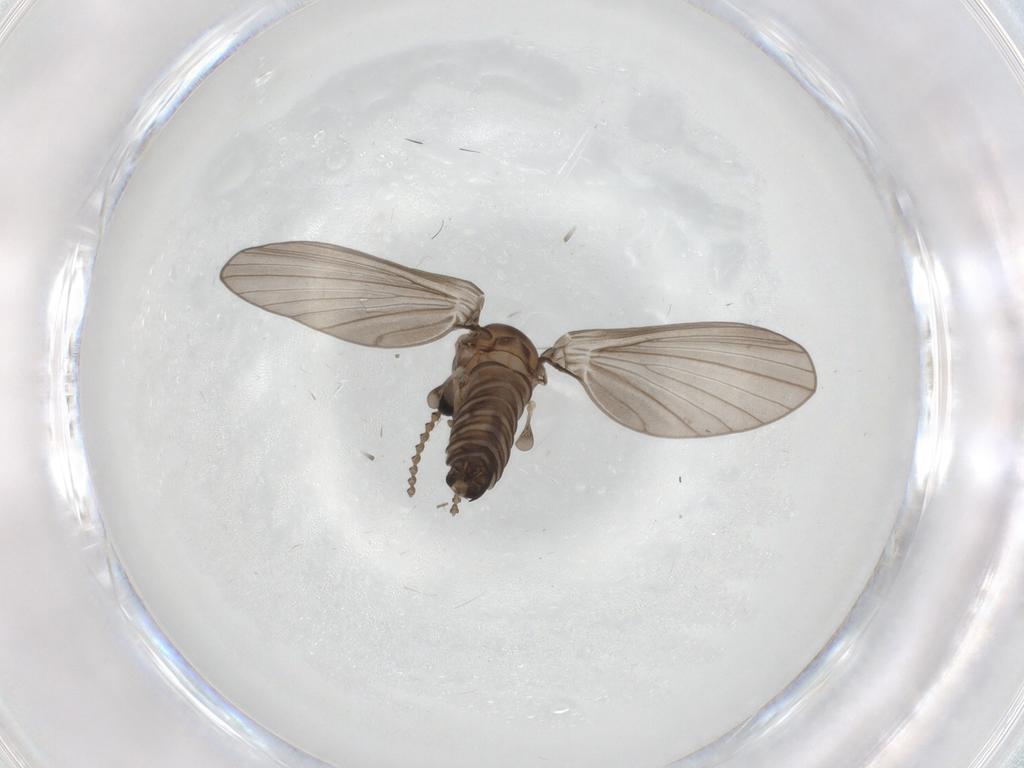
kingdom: Animalia
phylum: Arthropoda
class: Insecta
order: Diptera
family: Psychodidae
